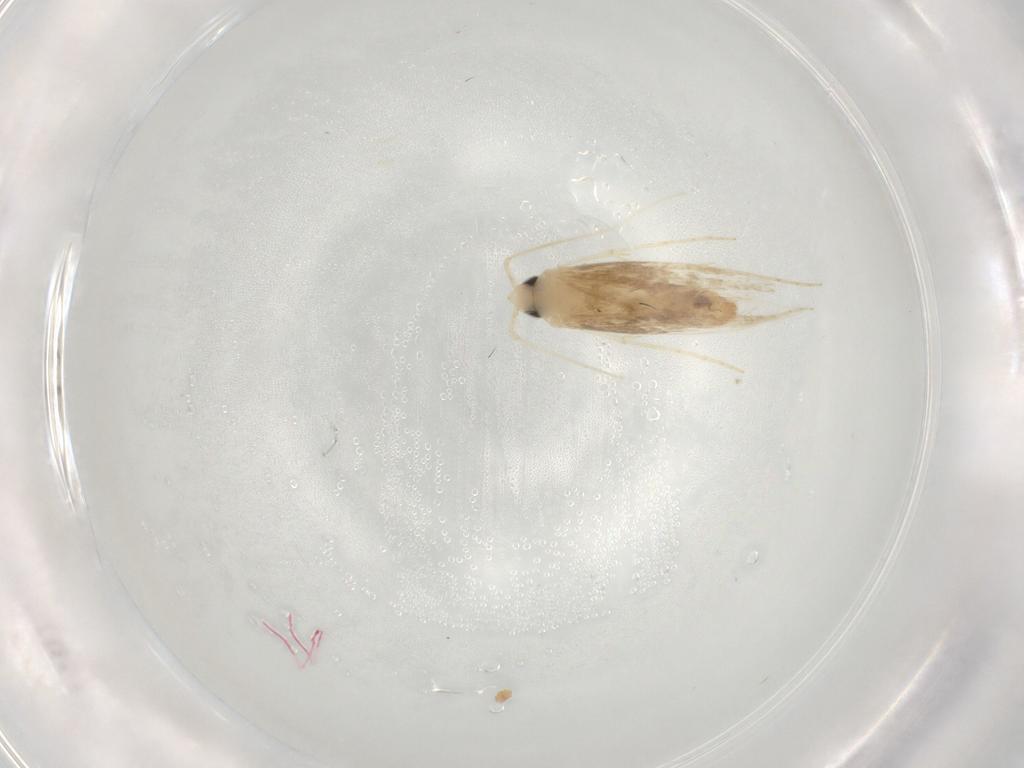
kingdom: Animalia
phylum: Arthropoda
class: Insecta
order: Lepidoptera
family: Tineidae
